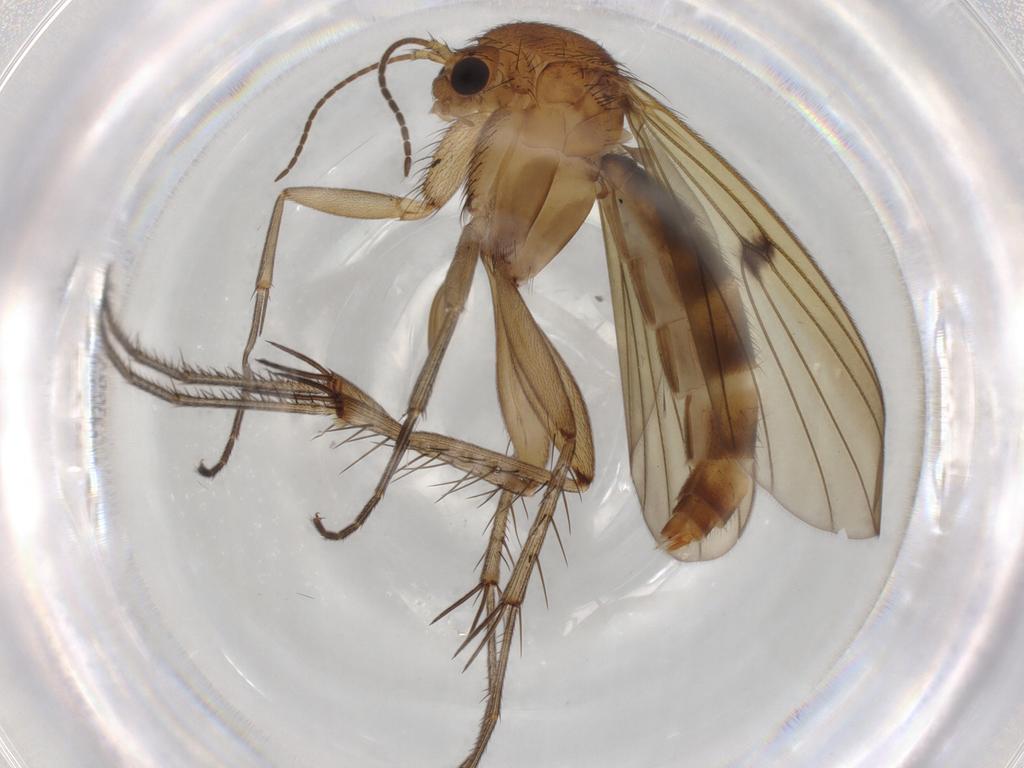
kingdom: Animalia
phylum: Arthropoda
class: Insecta
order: Diptera
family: Mycetophilidae
